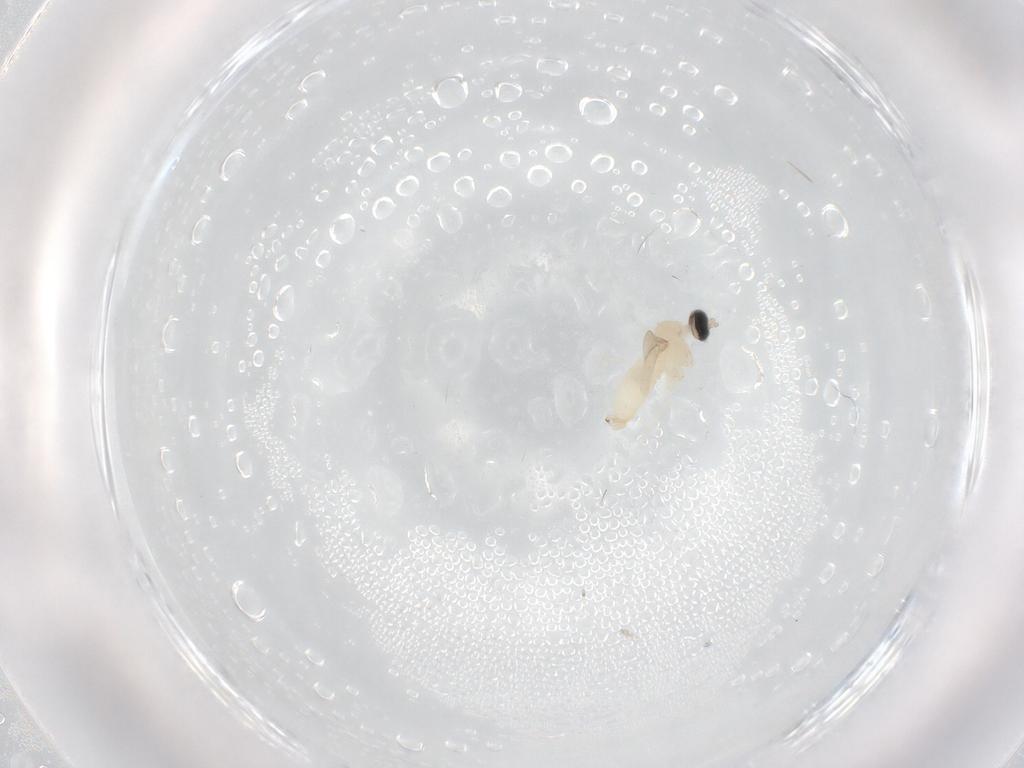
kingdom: Animalia
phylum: Arthropoda
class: Insecta
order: Diptera
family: Cecidomyiidae
